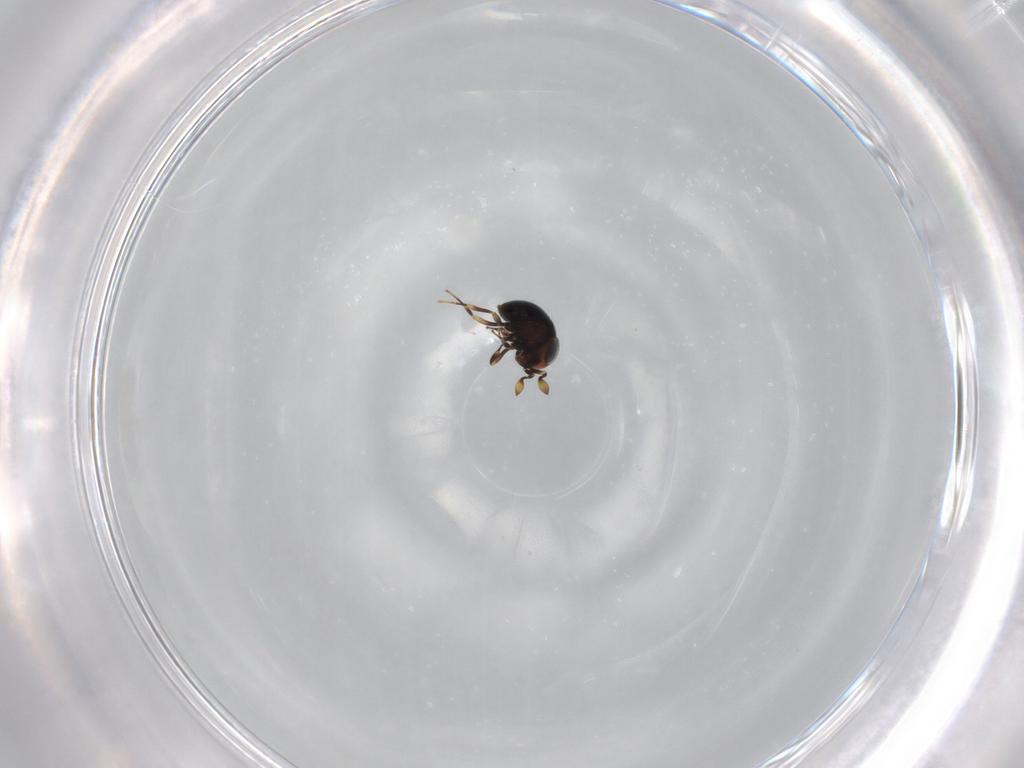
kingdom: Animalia
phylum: Arthropoda
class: Insecta
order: Hymenoptera
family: Scelionidae
